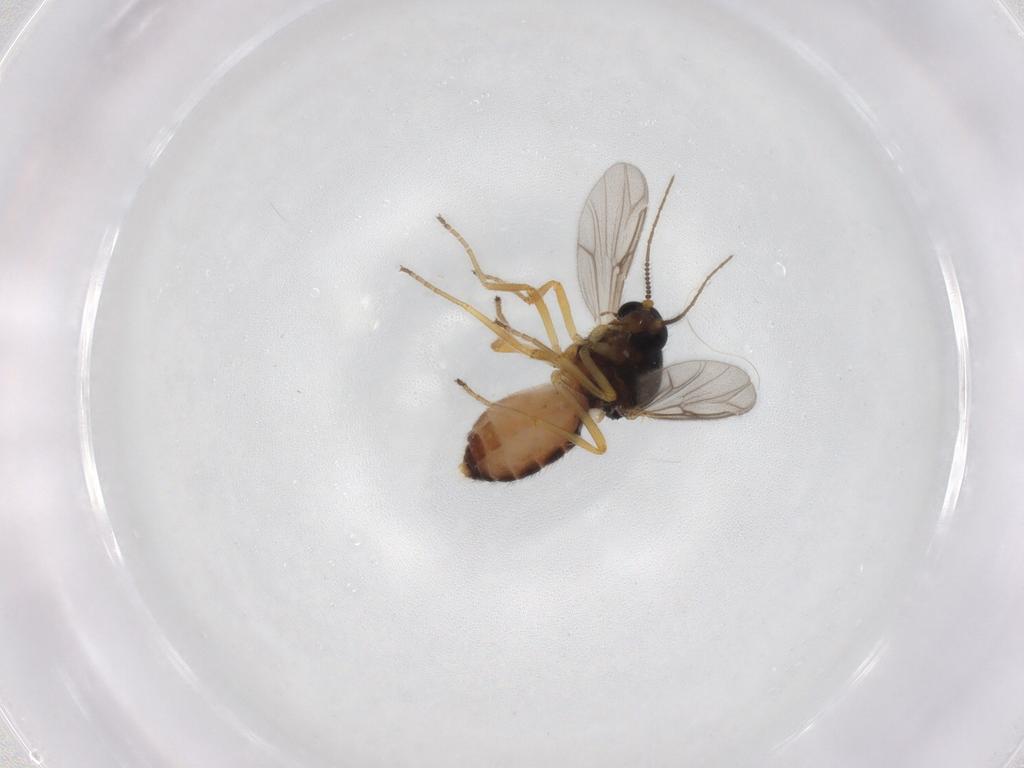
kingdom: Animalia
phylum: Arthropoda
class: Insecta
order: Diptera
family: Ceratopogonidae
